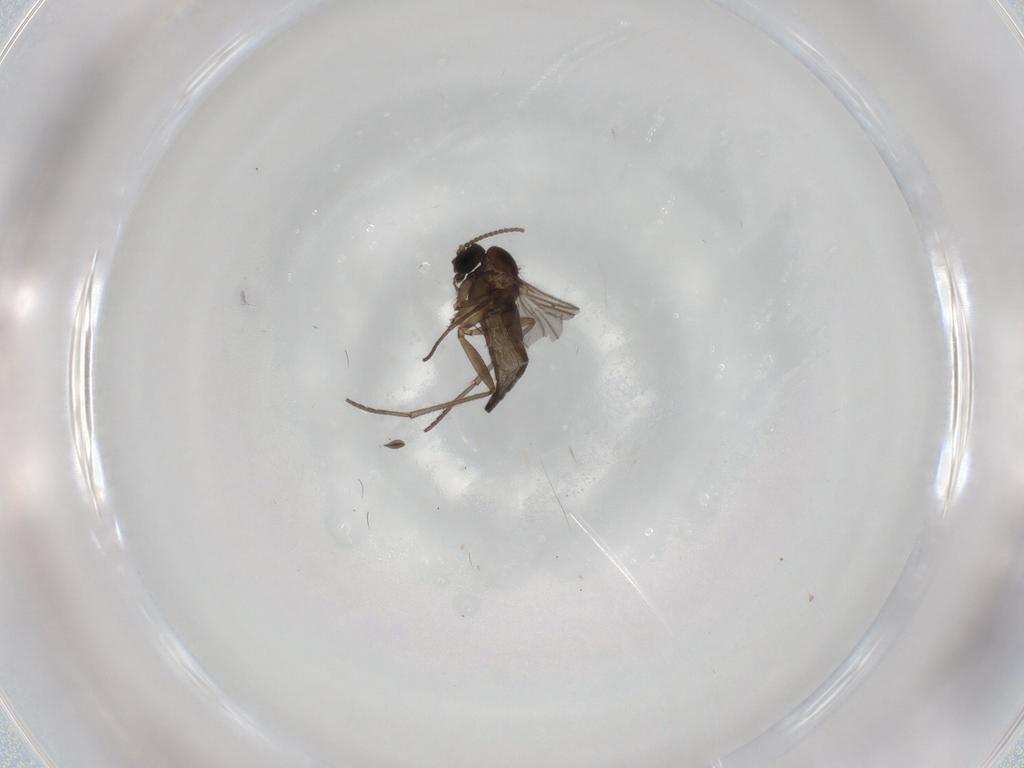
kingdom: Animalia
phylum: Arthropoda
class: Insecta
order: Diptera
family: Sciaridae
